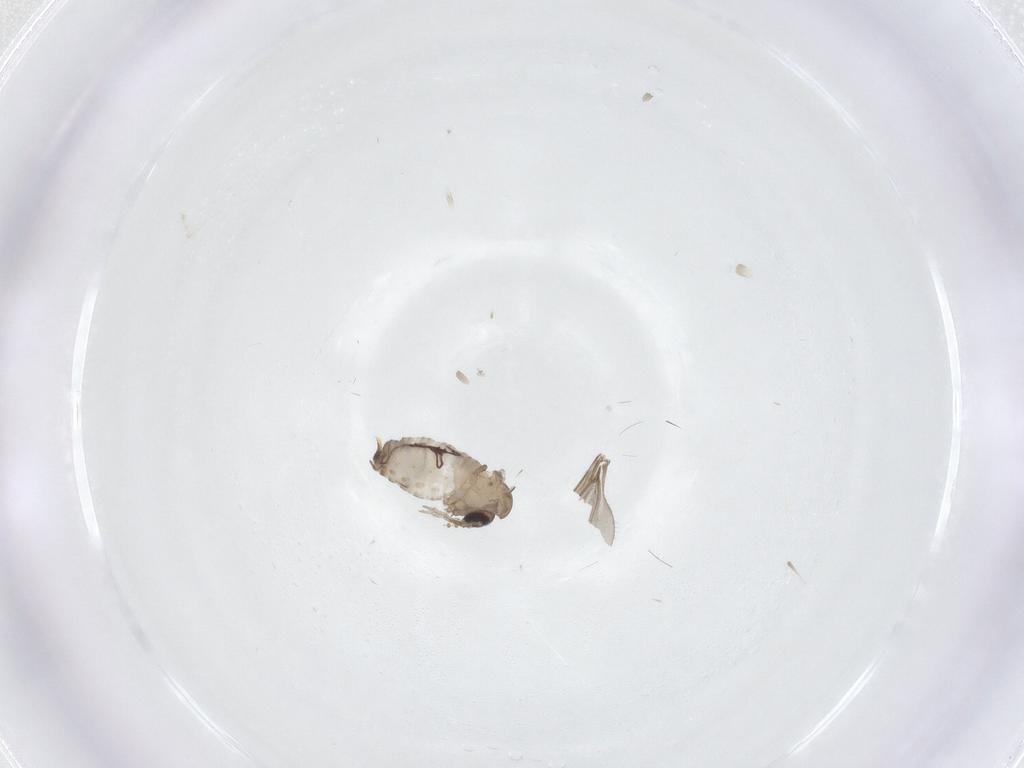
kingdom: Animalia
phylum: Arthropoda
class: Insecta
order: Diptera
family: Psychodidae
